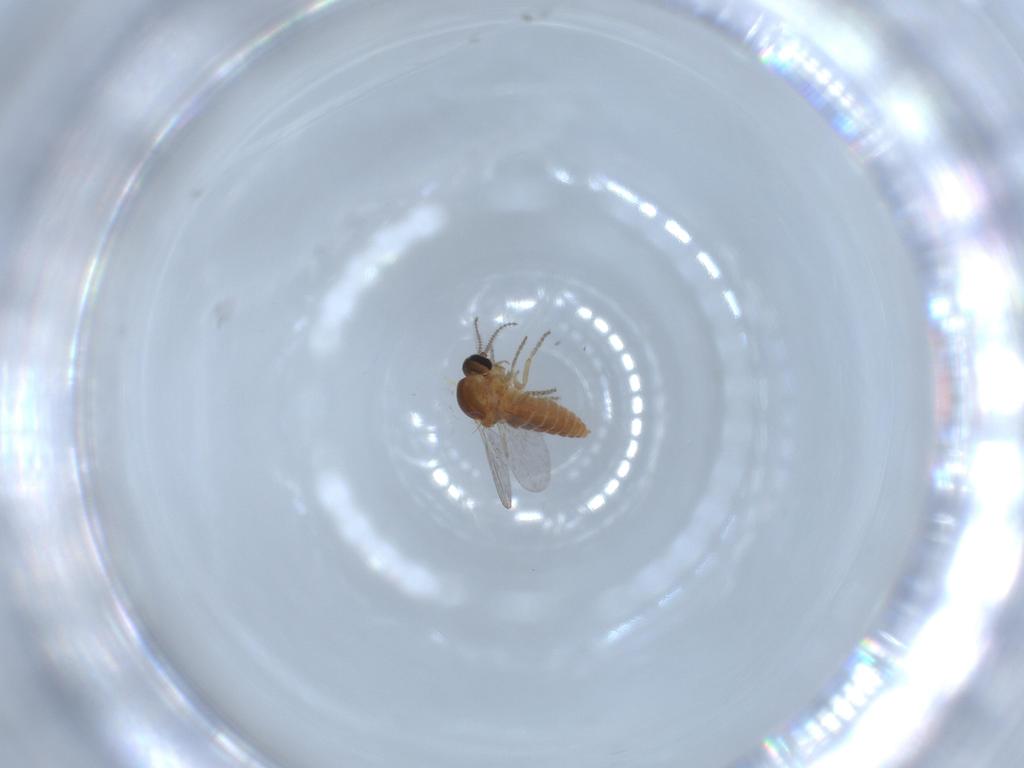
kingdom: Animalia
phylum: Arthropoda
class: Insecta
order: Diptera
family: Ceratopogonidae
